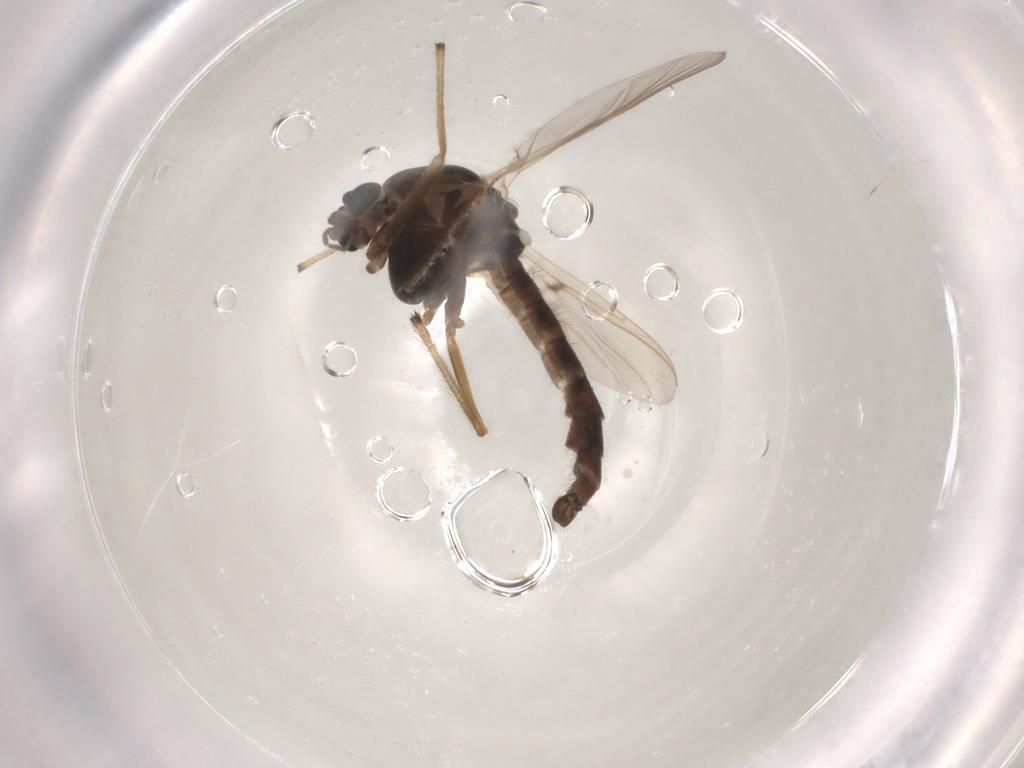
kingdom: Animalia
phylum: Arthropoda
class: Insecta
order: Diptera
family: Chironomidae
